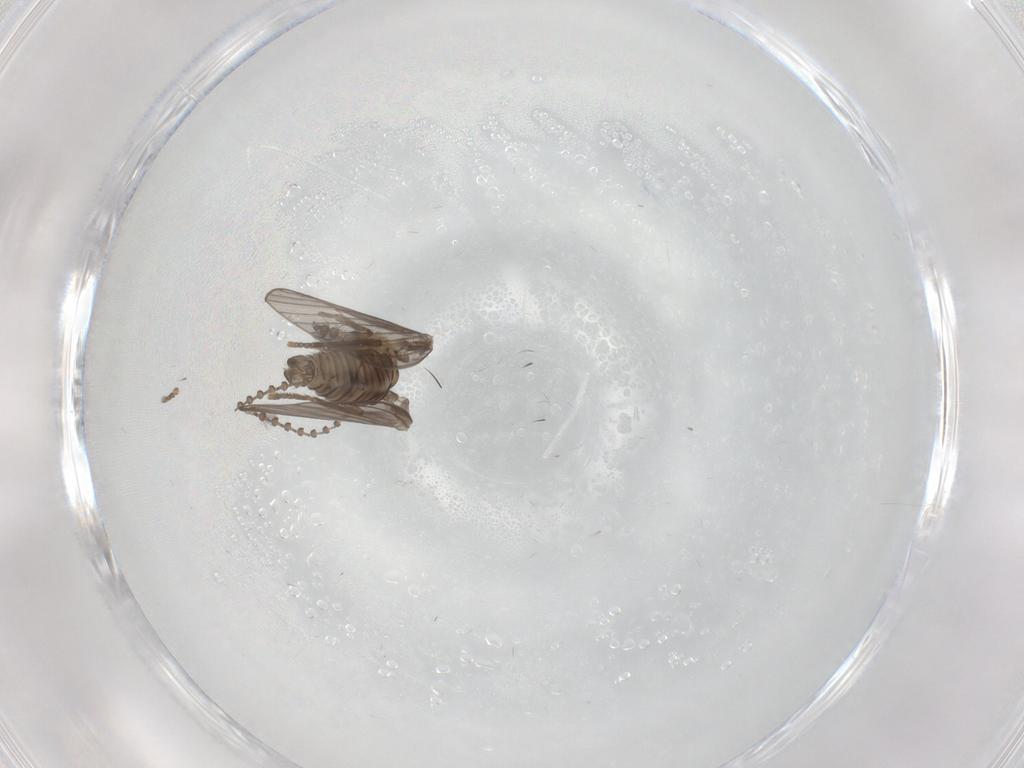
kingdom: Animalia
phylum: Arthropoda
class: Insecta
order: Diptera
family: Psychodidae
